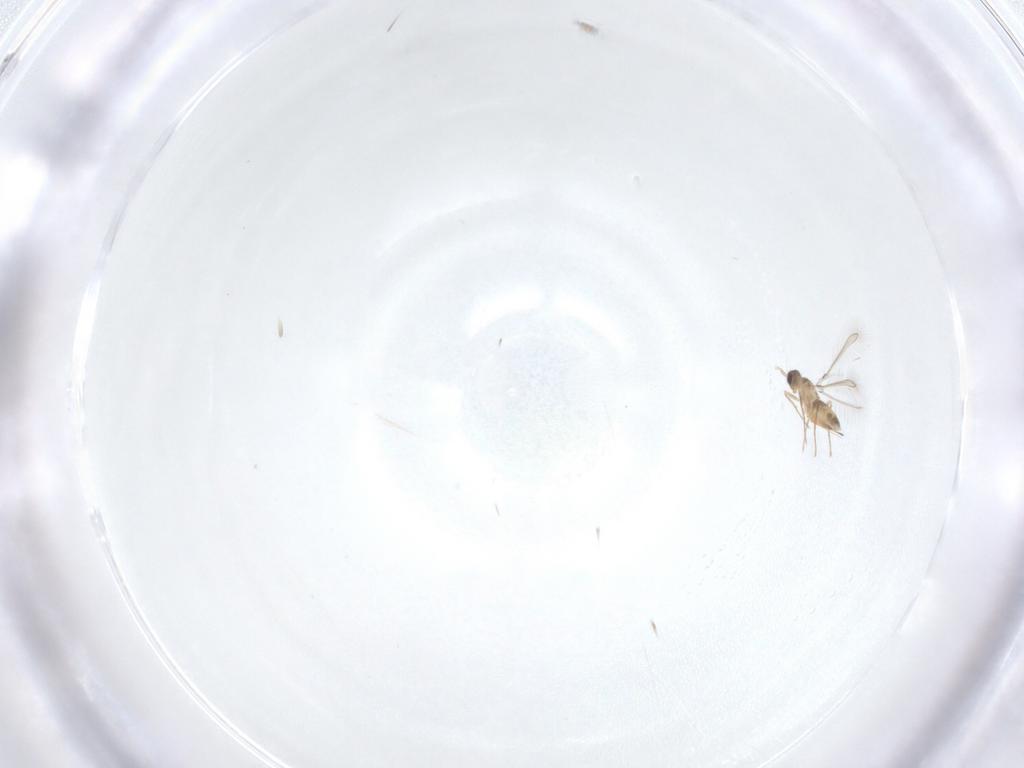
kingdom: Animalia
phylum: Arthropoda
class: Insecta
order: Hymenoptera
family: Mymaridae
